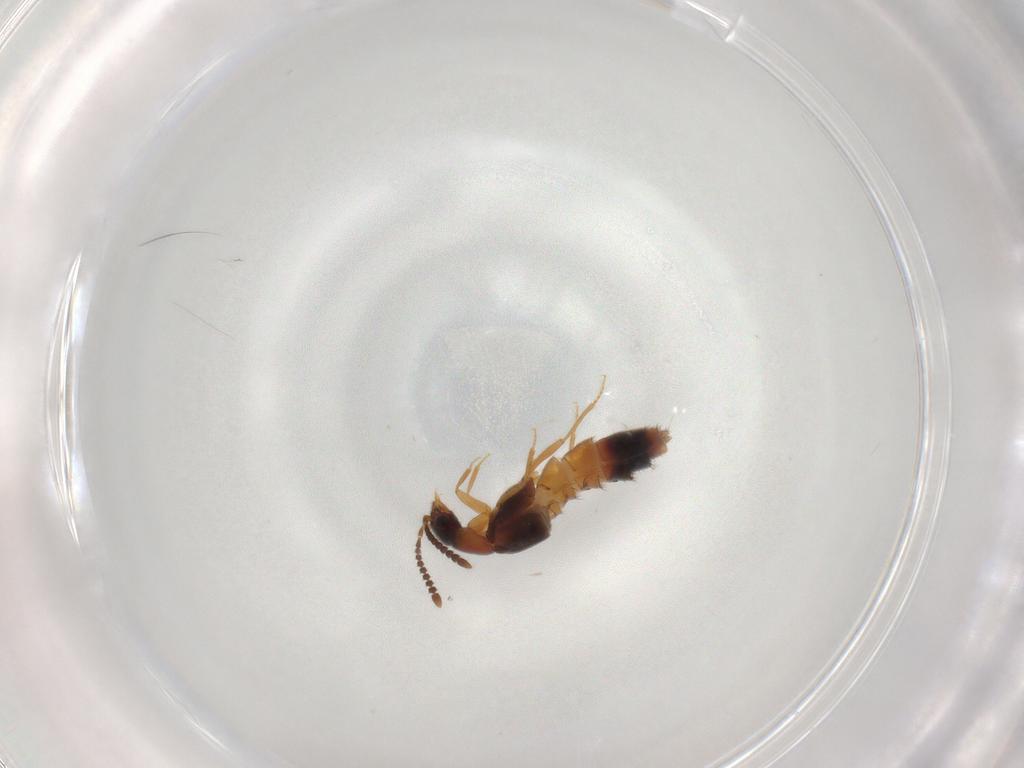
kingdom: Animalia
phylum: Arthropoda
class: Insecta
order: Coleoptera
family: Staphylinidae
